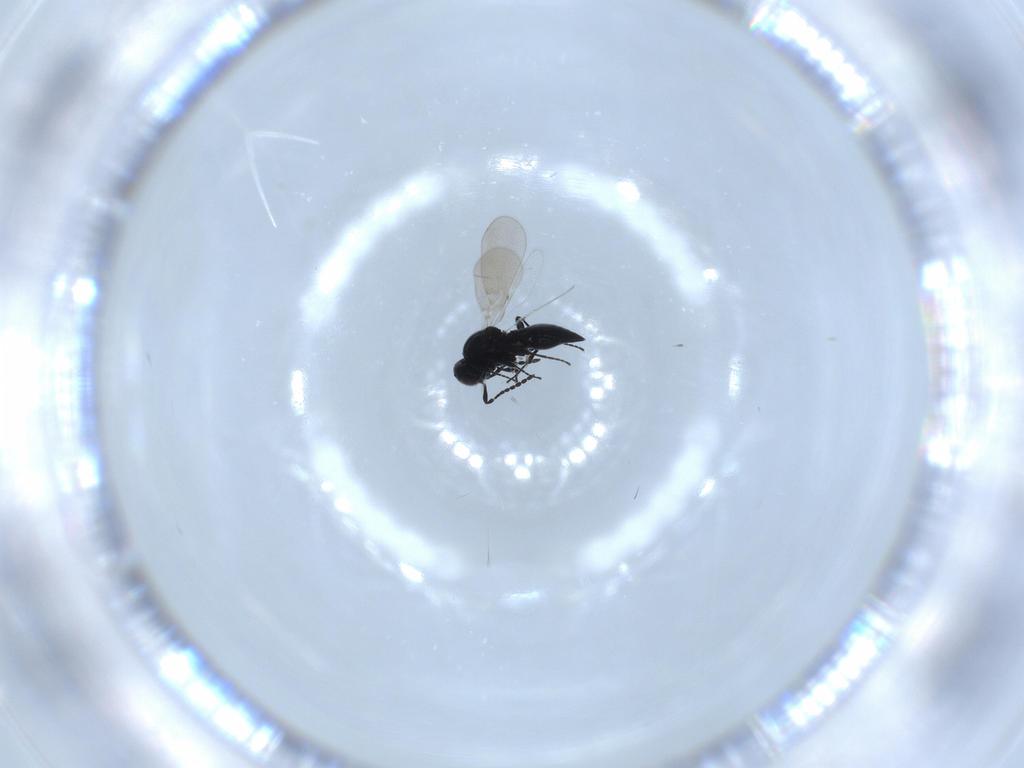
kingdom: Animalia
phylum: Arthropoda
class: Insecta
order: Hymenoptera
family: Platygastridae
